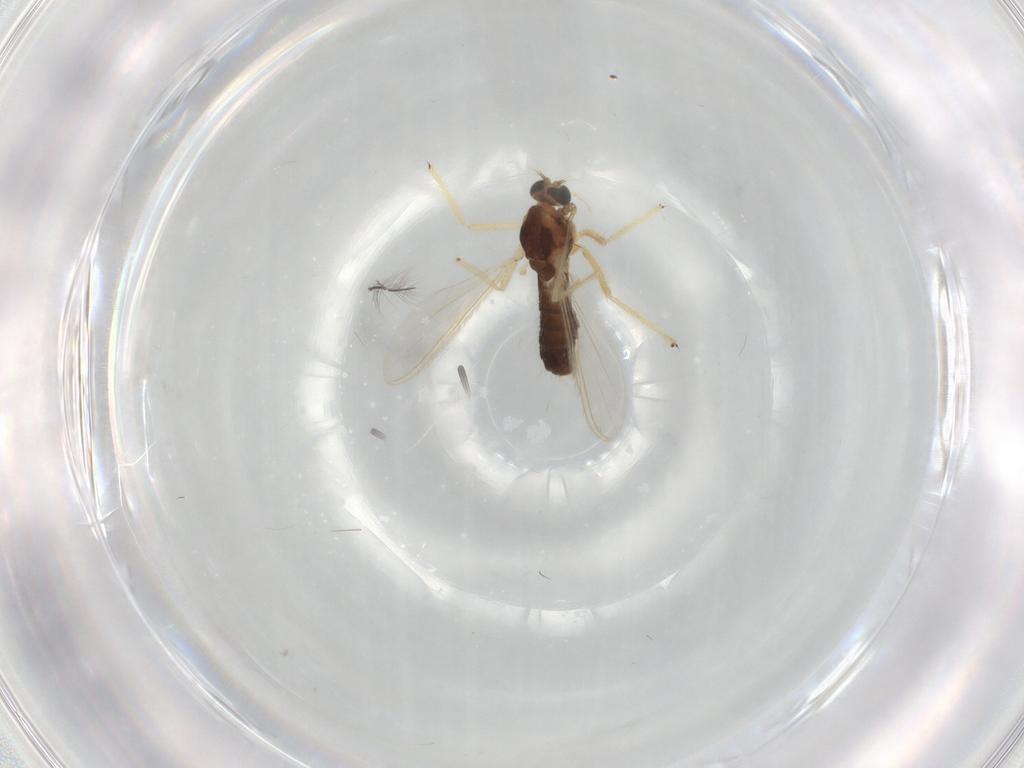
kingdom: Animalia
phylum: Arthropoda
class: Insecta
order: Diptera
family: Chironomidae
